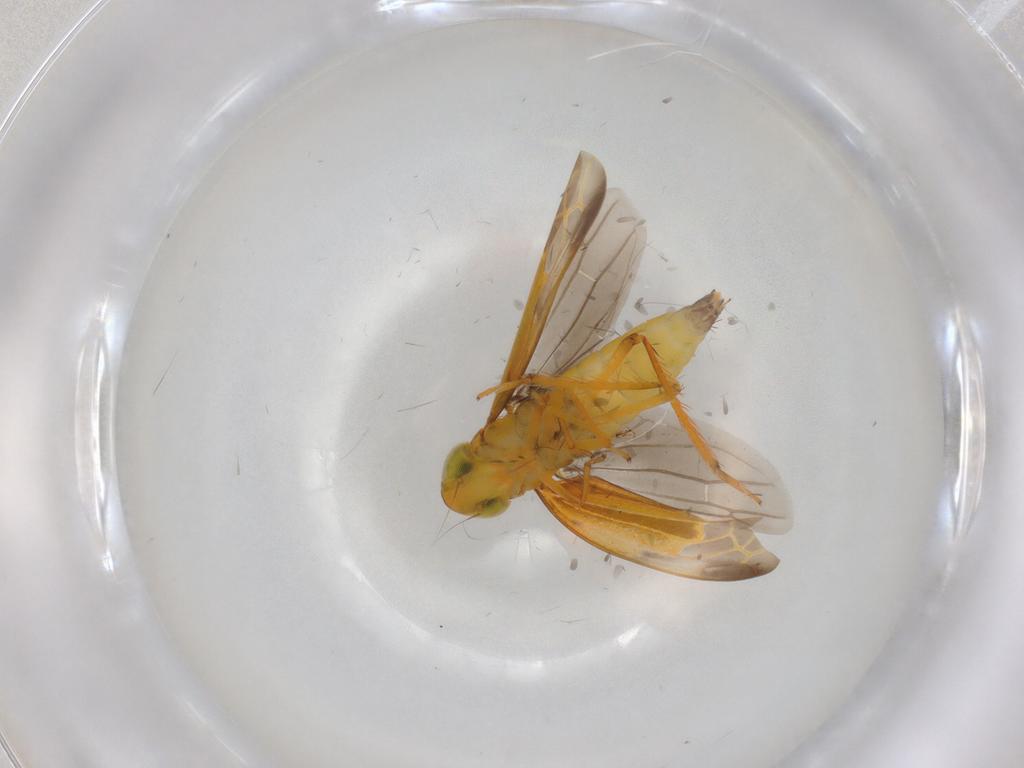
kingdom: Animalia
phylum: Arthropoda
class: Insecta
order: Hemiptera
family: Cicadellidae
